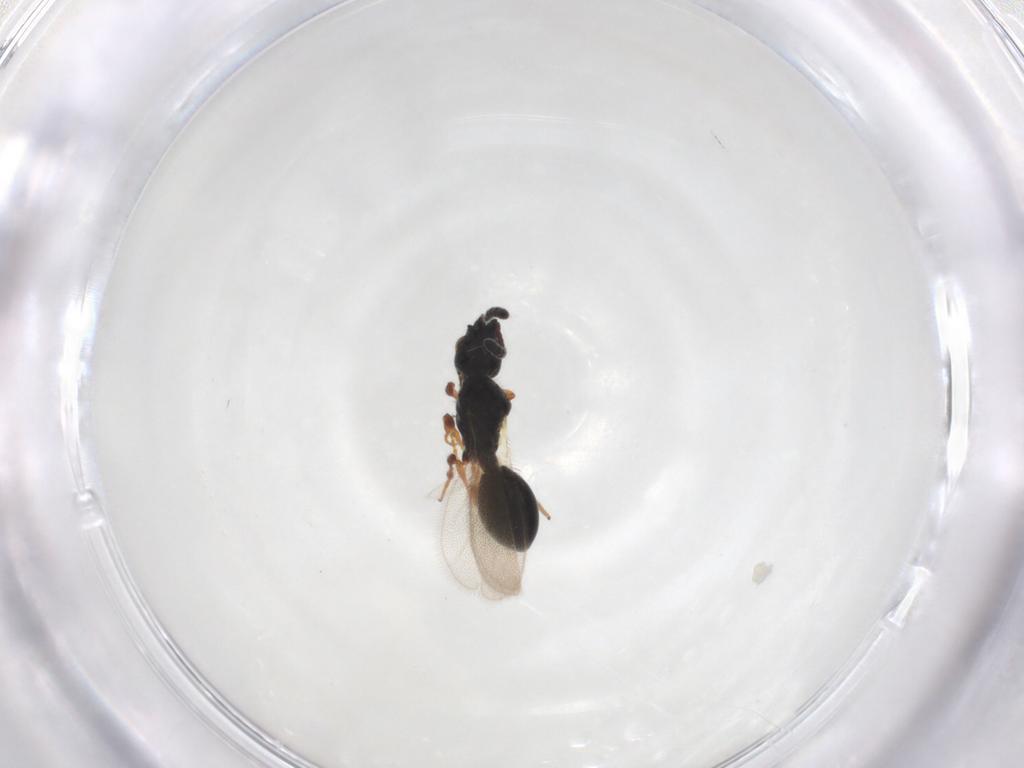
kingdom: Animalia
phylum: Arthropoda
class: Insecta
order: Hymenoptera
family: Diapriidae
